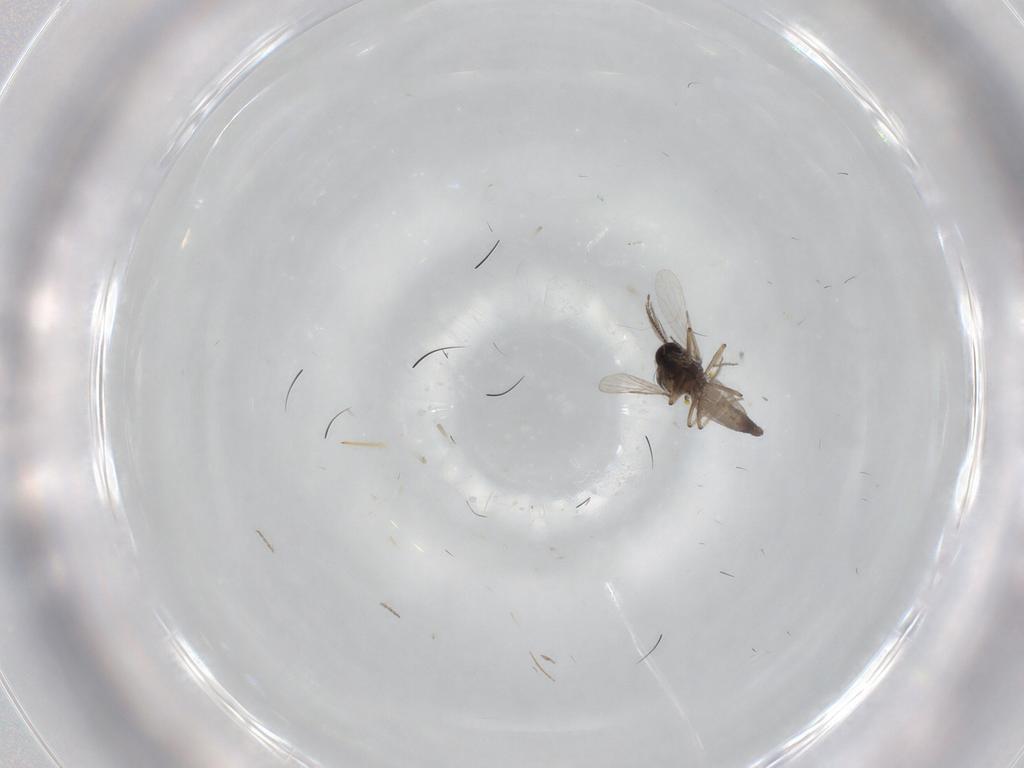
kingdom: Animalia
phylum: Arthropoda
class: Insecta
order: Diptera
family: Ceratopogonidae
